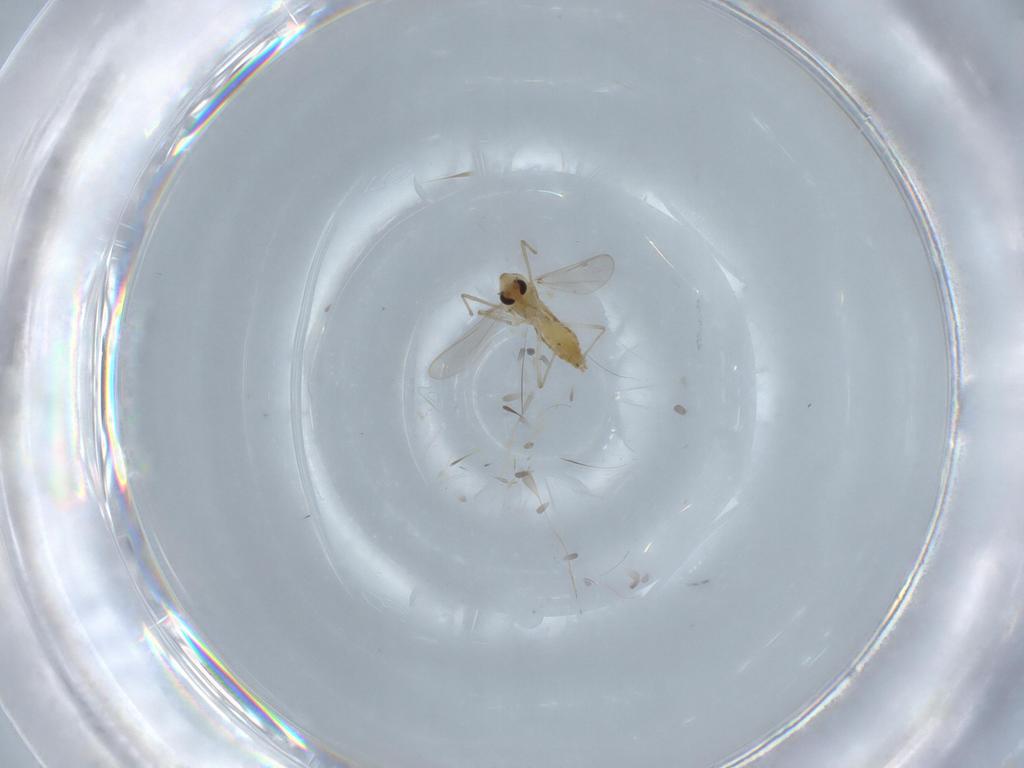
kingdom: Animalia
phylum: Arthropoda
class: Insecta
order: Diptera
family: Chironomidae
